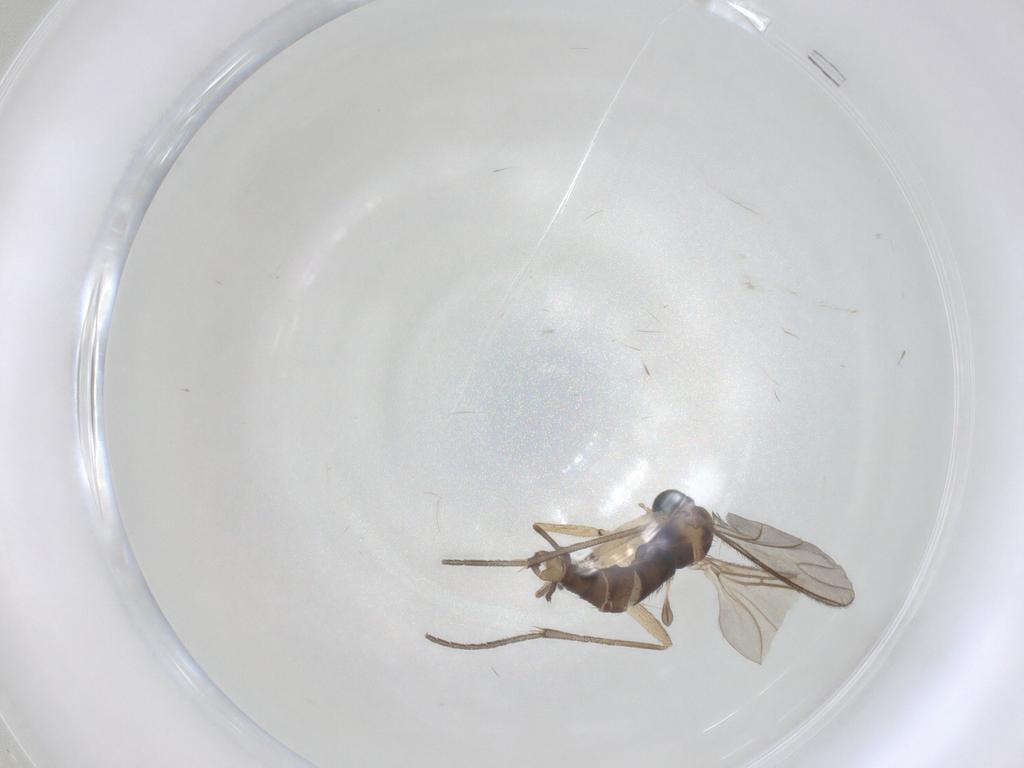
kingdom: Animalia
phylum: Arthropoda
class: Insecta
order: Diptera
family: Sciaridae
